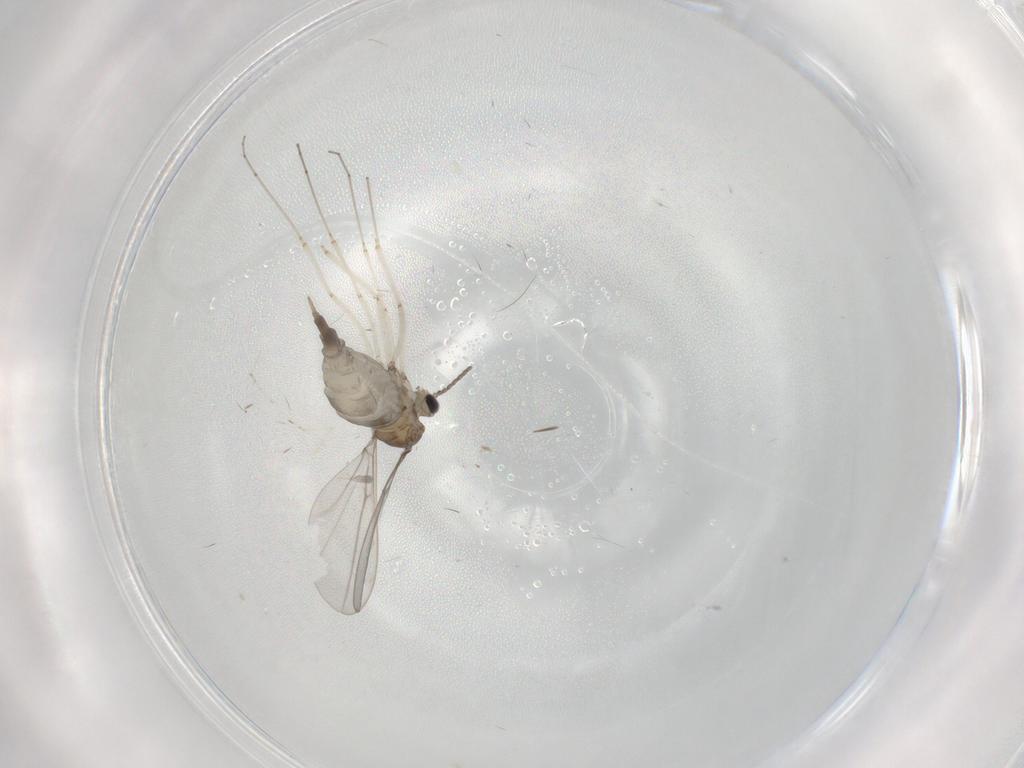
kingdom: Animalia
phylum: Arthropoda
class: Insecta
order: Diptera
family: Cecidomyiidae
